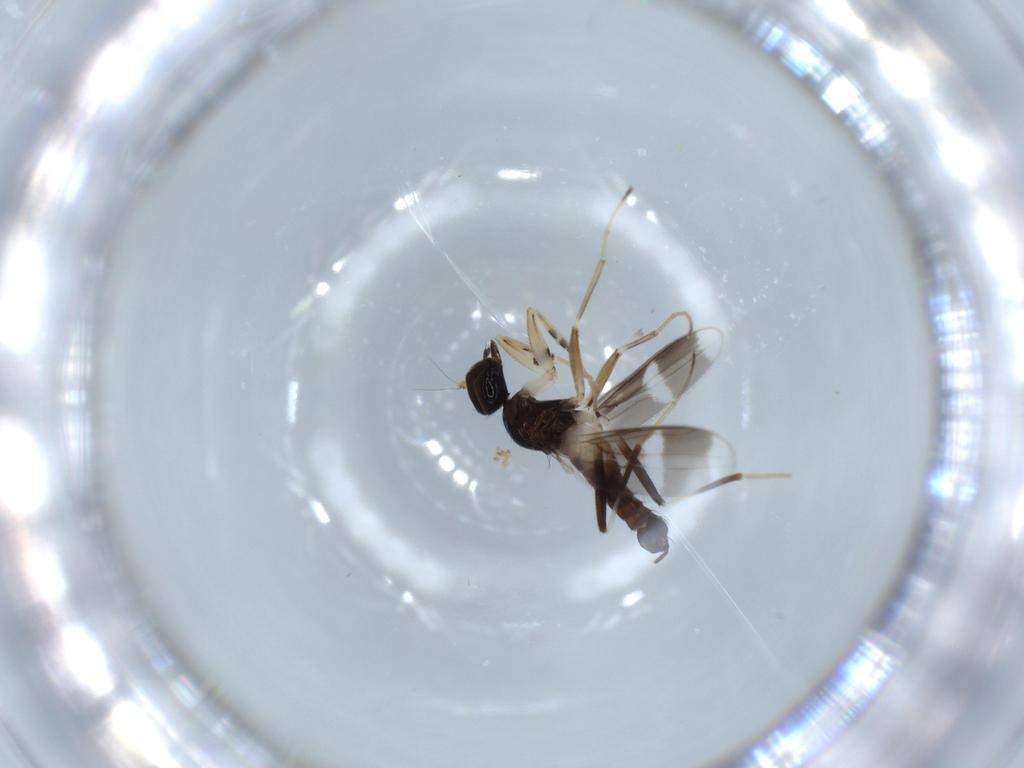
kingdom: Animalia
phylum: Arthropoda
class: Insecta
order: Diptera
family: Hybotidae
